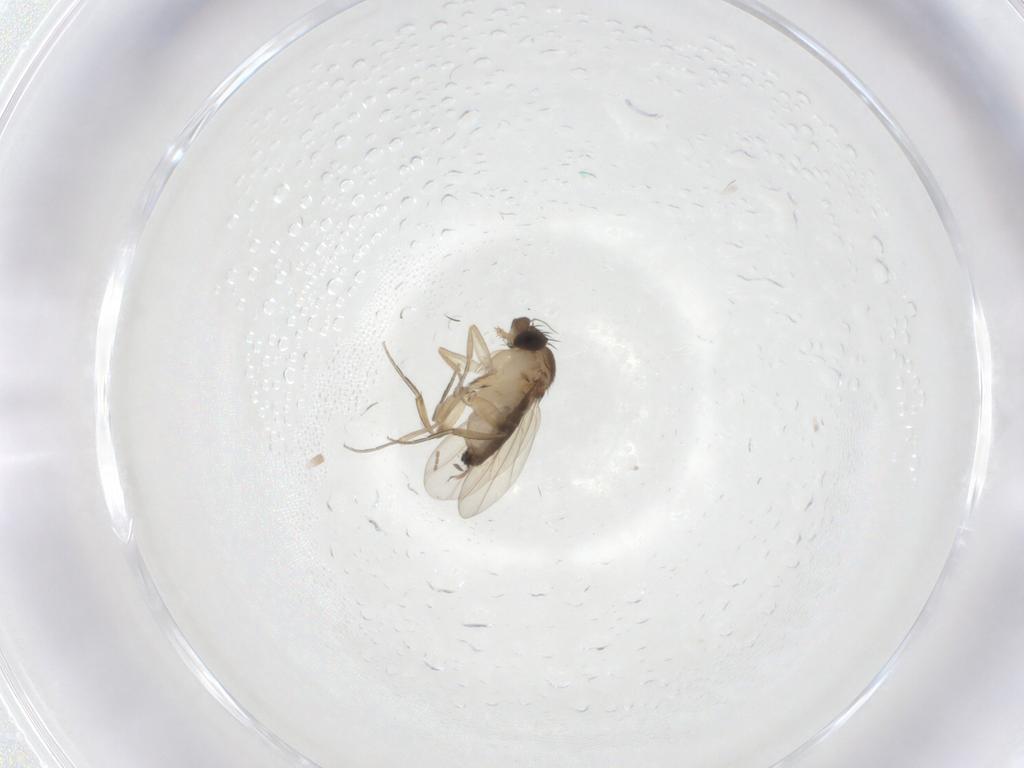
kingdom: Animalia
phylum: Arthropoda
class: Insecta
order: Diptera
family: Phoridae
